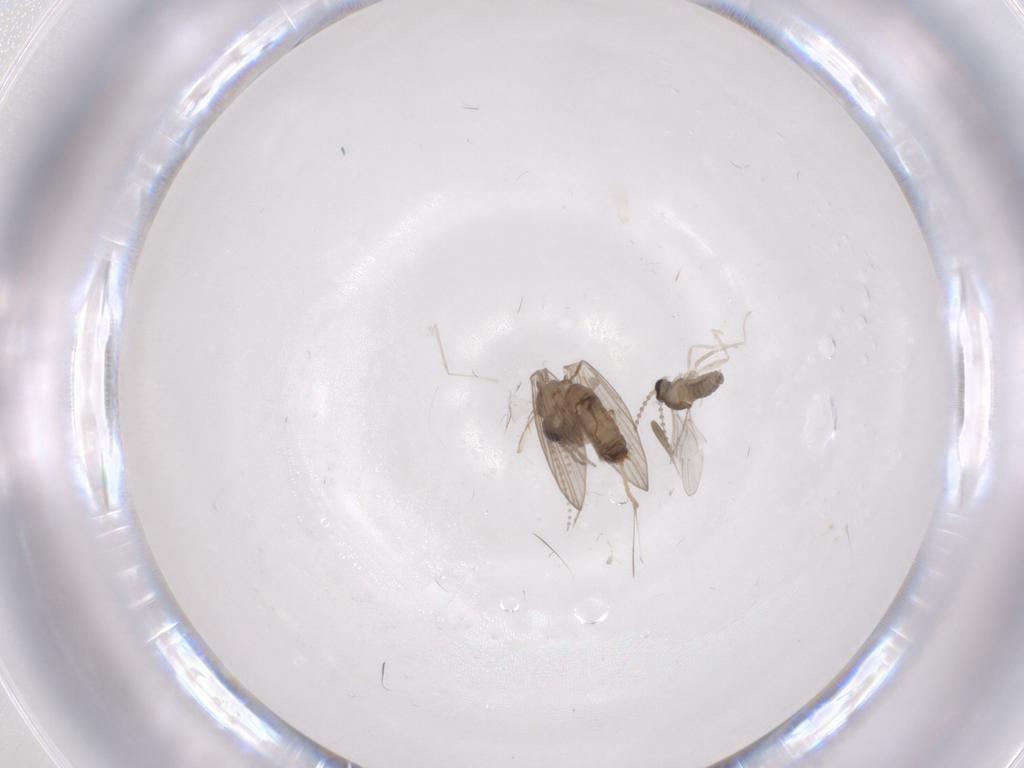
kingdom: Animalia
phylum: Arthropoda
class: Insecta
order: Diptera
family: Psychodidae
